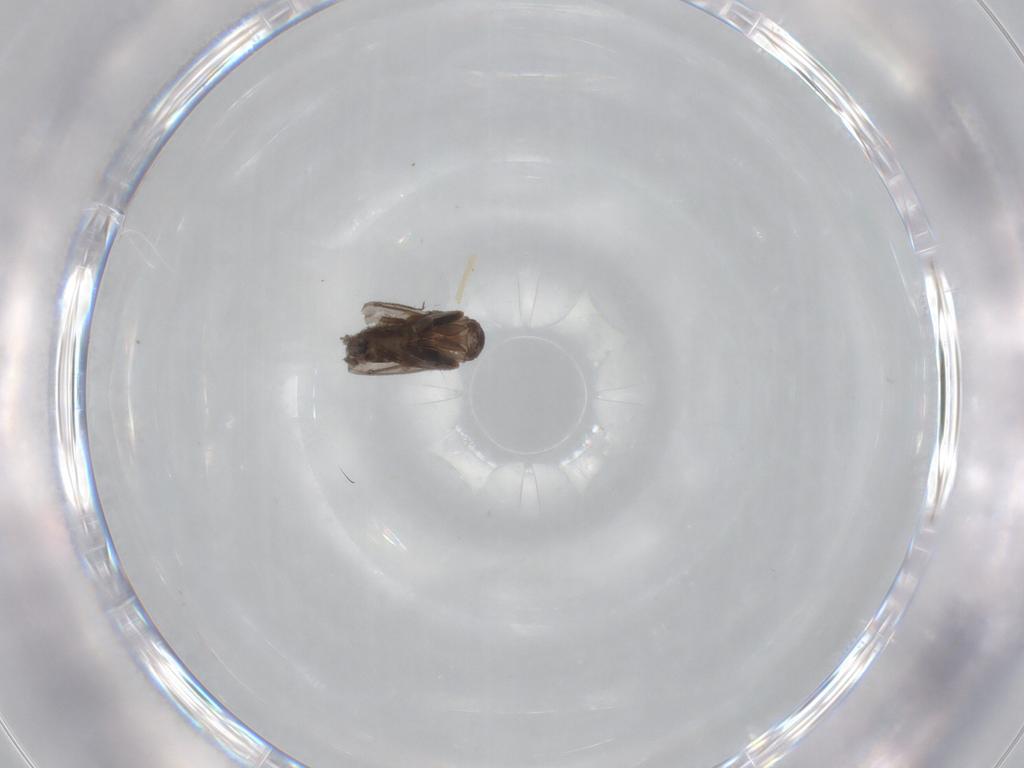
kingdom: Animalia
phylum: Arthropoda
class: Insecta
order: Diptera
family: Phoridae
